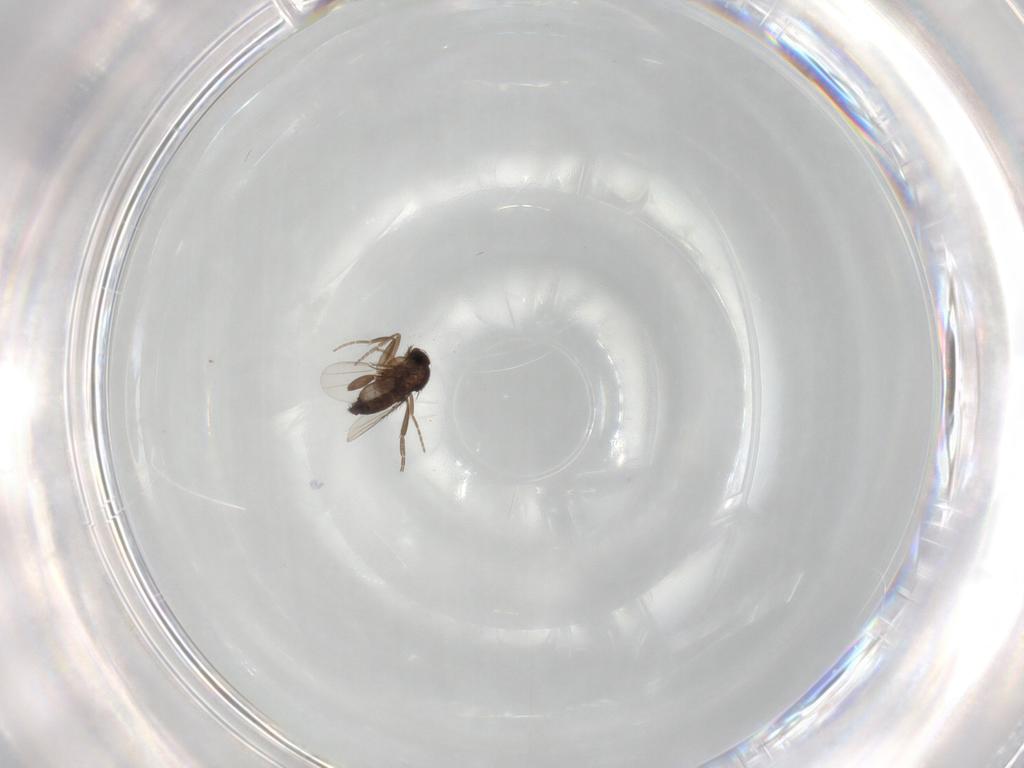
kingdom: Animalia
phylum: Arthropoda
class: Insecta
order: Diptera
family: Phoridae
